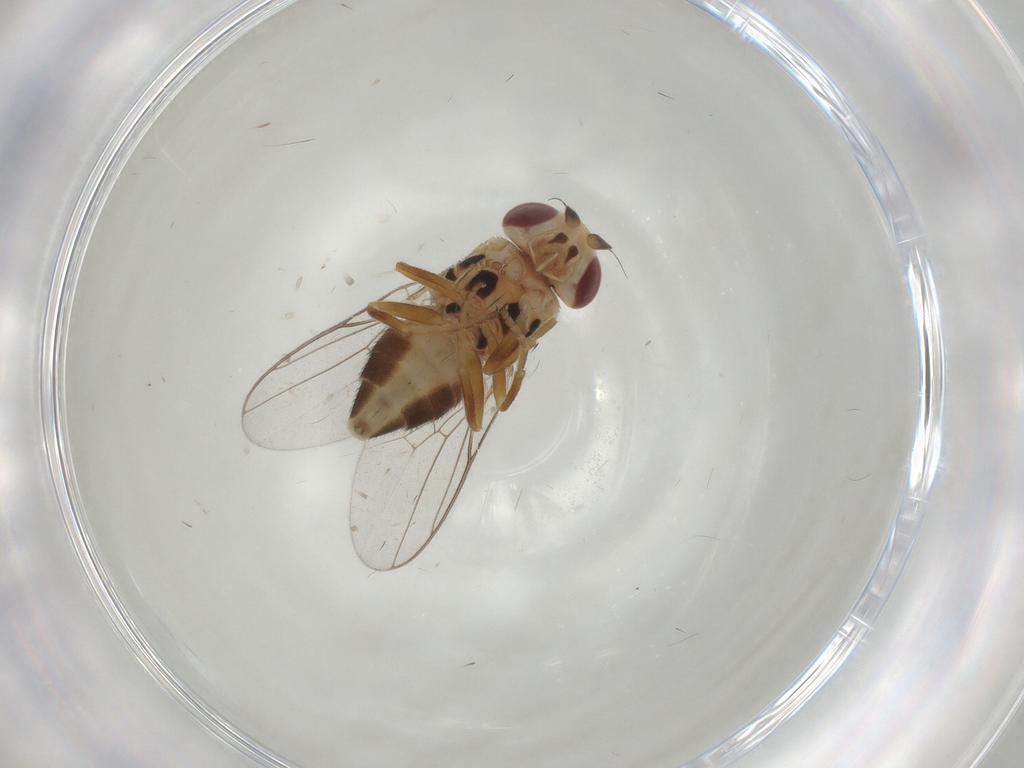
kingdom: Animalia
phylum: Arthropoda
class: Insecta
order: Diptera
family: Chloropidae
